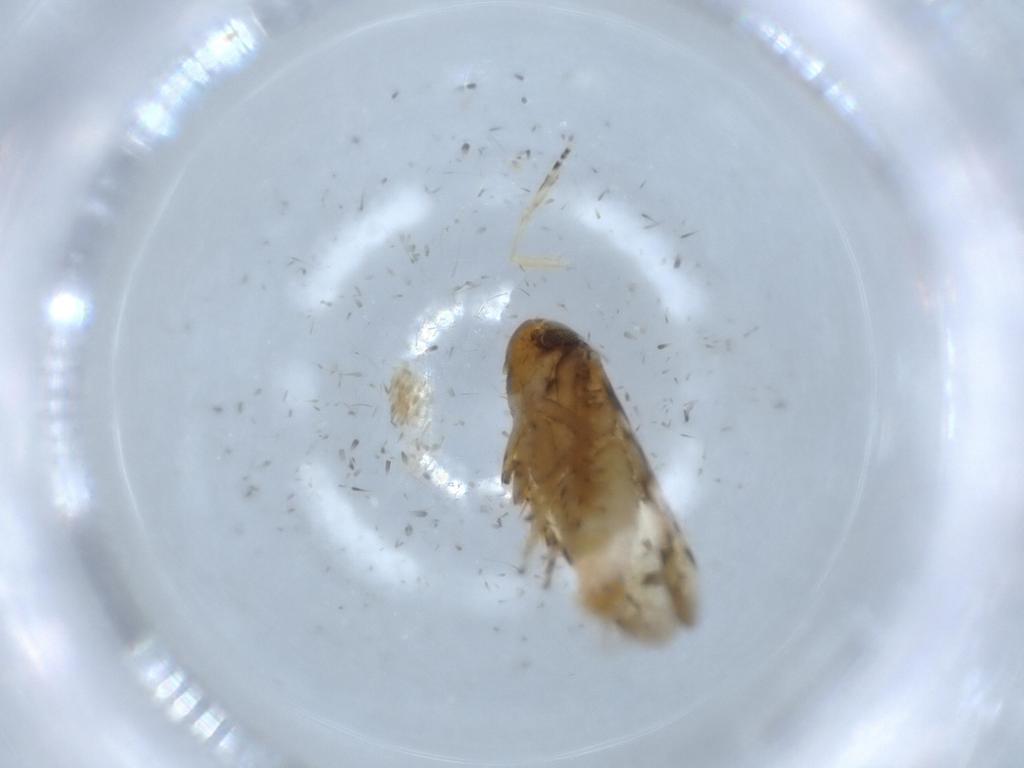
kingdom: Animalia
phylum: Arthropoda
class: Insecta
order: Hemiptera
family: Cicadellidae
